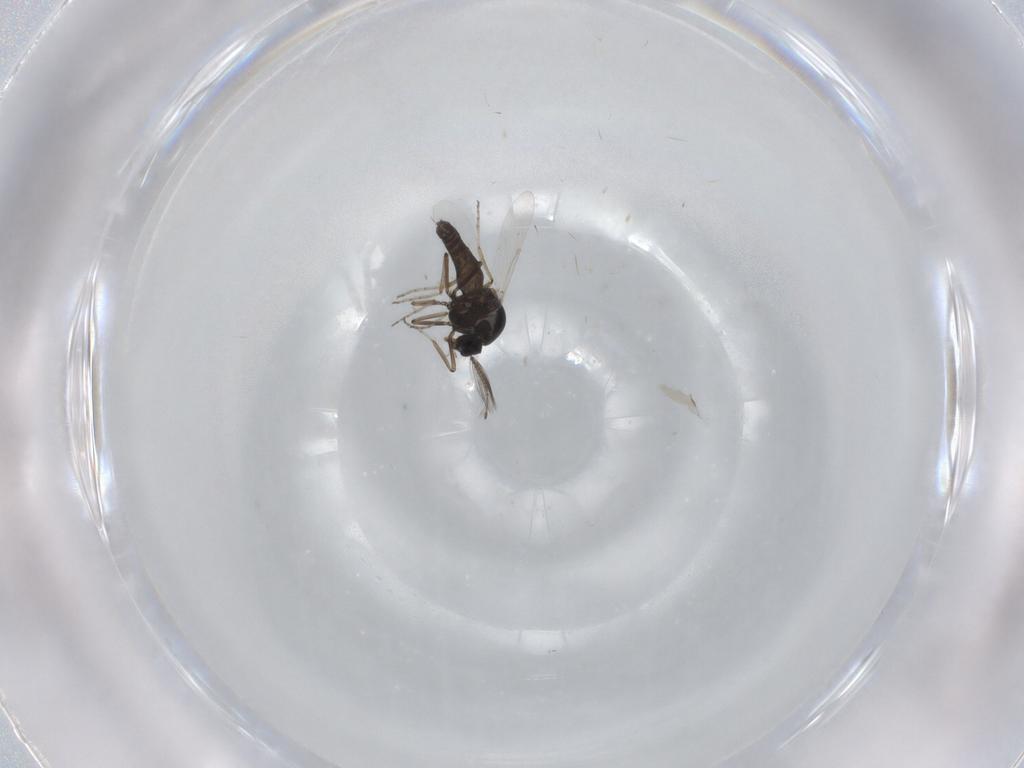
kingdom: Animalia
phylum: Arthropoda
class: Insecta
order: Diptera
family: Ceratopogonidae
